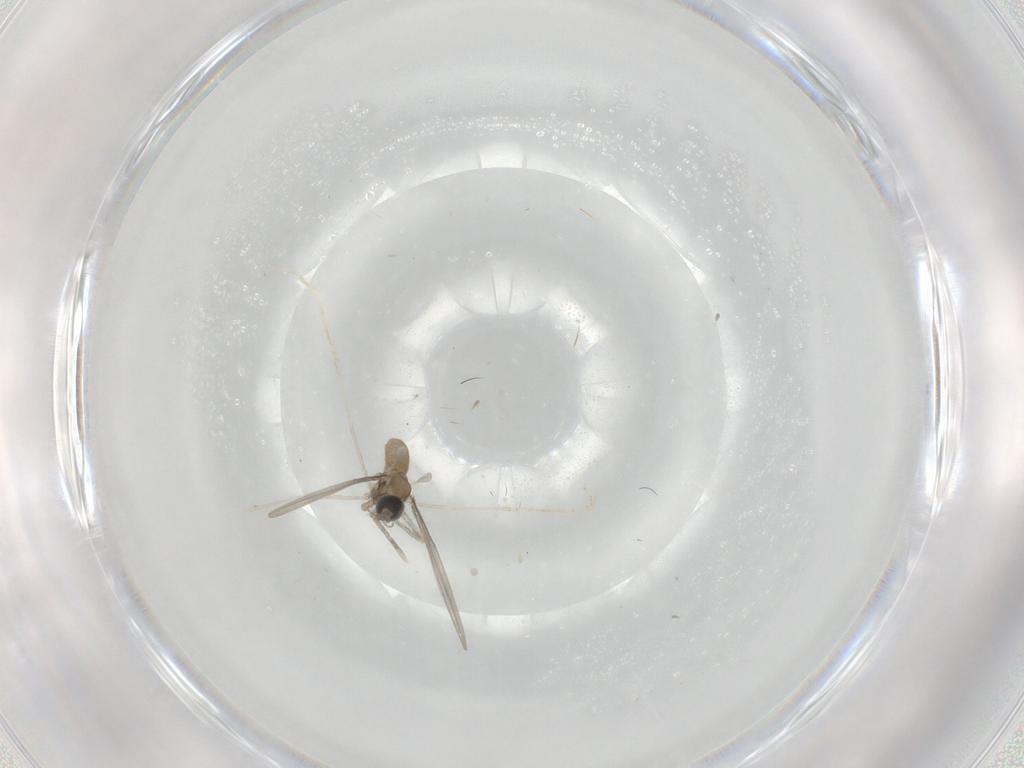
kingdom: Animalia
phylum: Arthropoda
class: Insecta
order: Diptera
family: Cecidomyiidae
